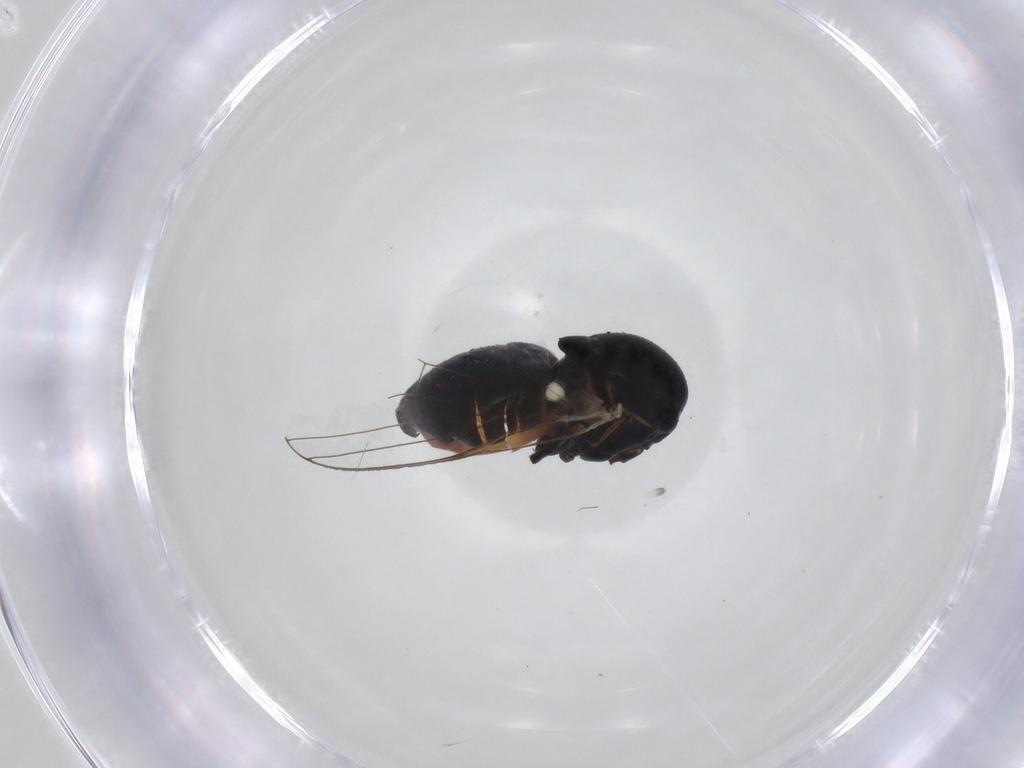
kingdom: Animalia
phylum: Arthropoda
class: Insecta
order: Diptera
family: Chamaemyiidae
